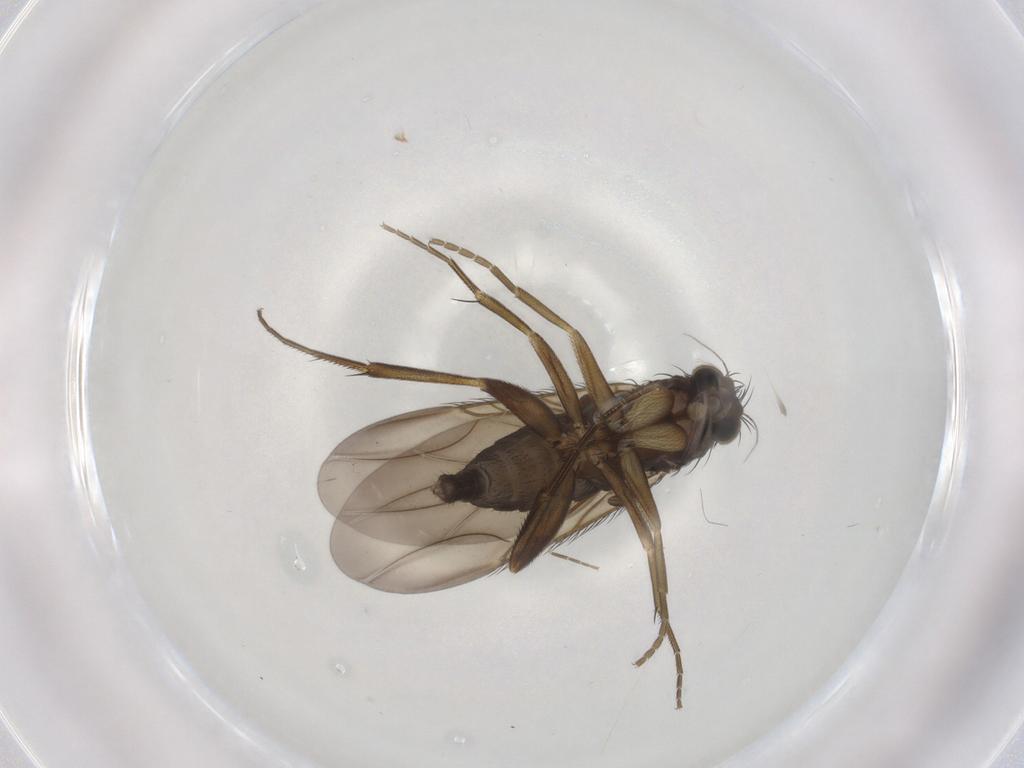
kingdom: Animalia
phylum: Arthropoda
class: Insecta
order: Diptera
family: Phoridae
